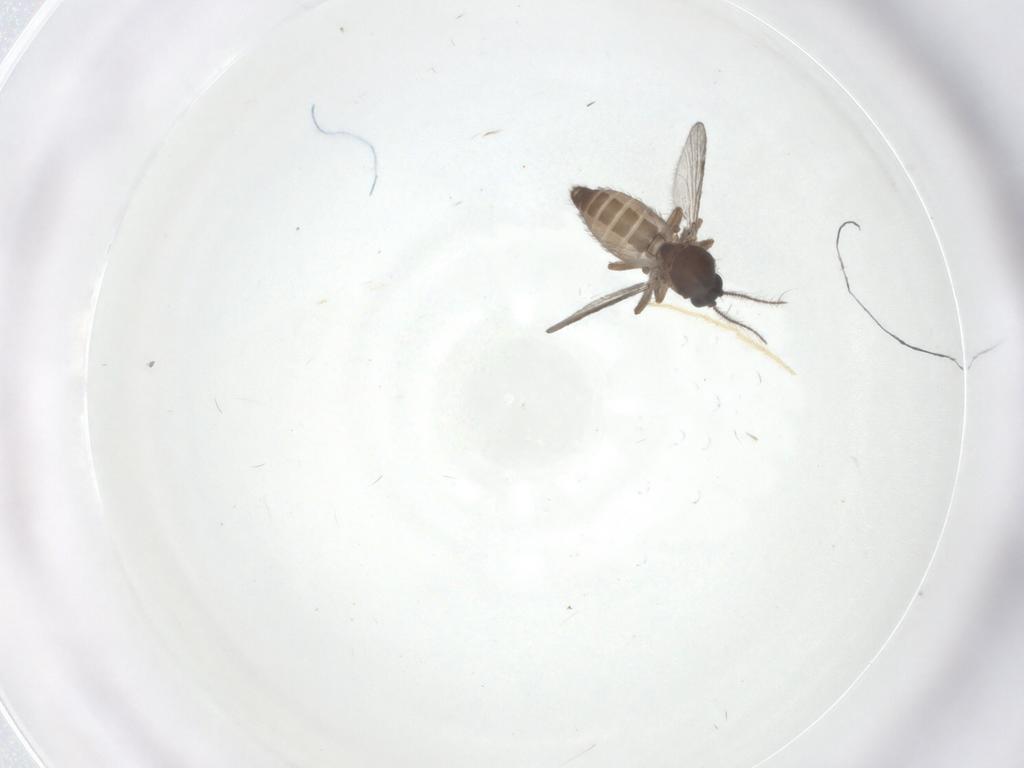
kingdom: Animalia
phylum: Arthropoda
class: Insecta
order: Diptera
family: Chironomidae
